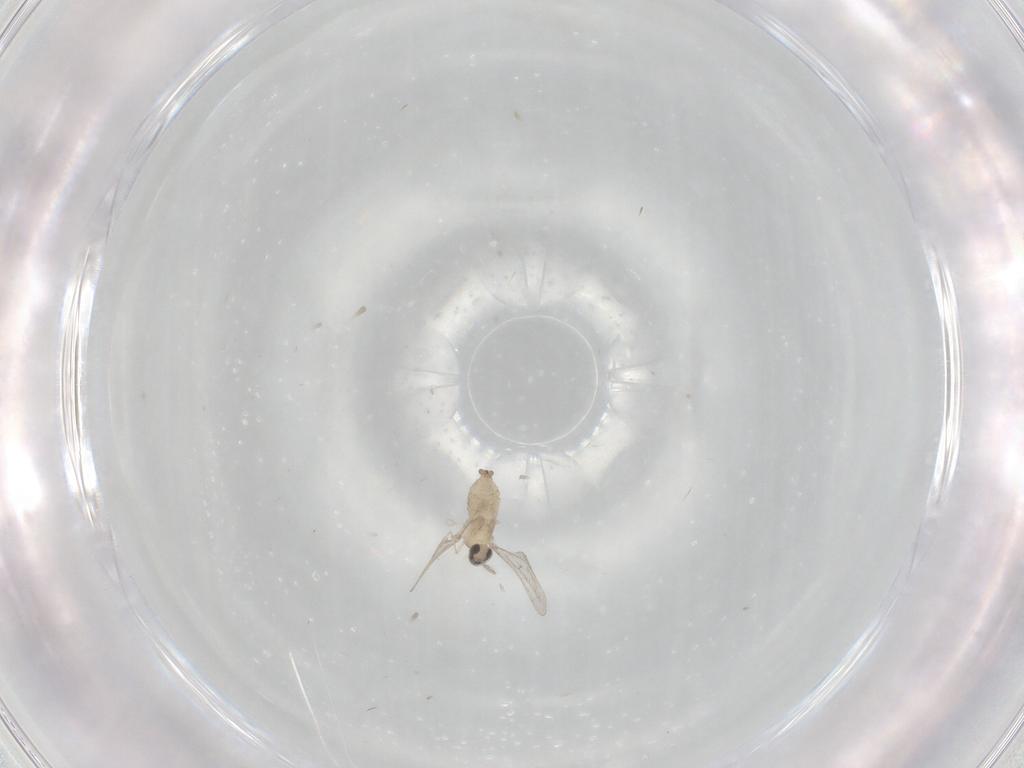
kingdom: Animalia
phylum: Arthropoda
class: Insecta
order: Diptera
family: Cecidomyiidae
